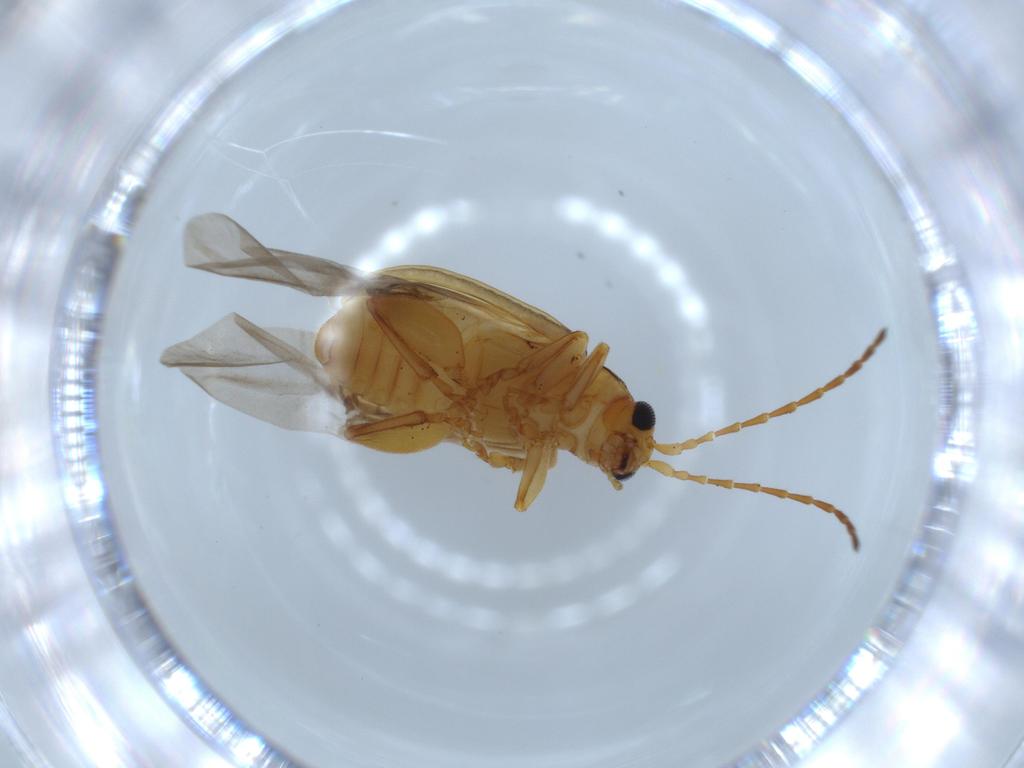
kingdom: Animalia
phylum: Arthropoda
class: Insecta
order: Coleoptera
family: Chrysomelidae
